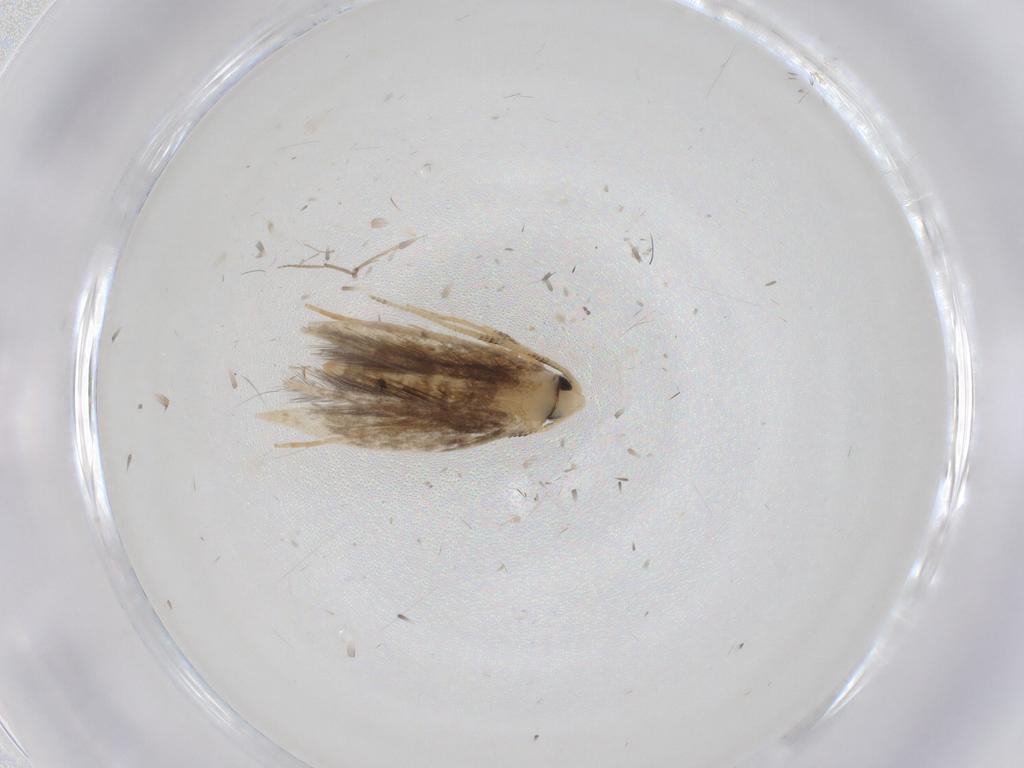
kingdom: Animalia
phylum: Arthropoda
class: Insecta
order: Lepidoptera
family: Tineidae
